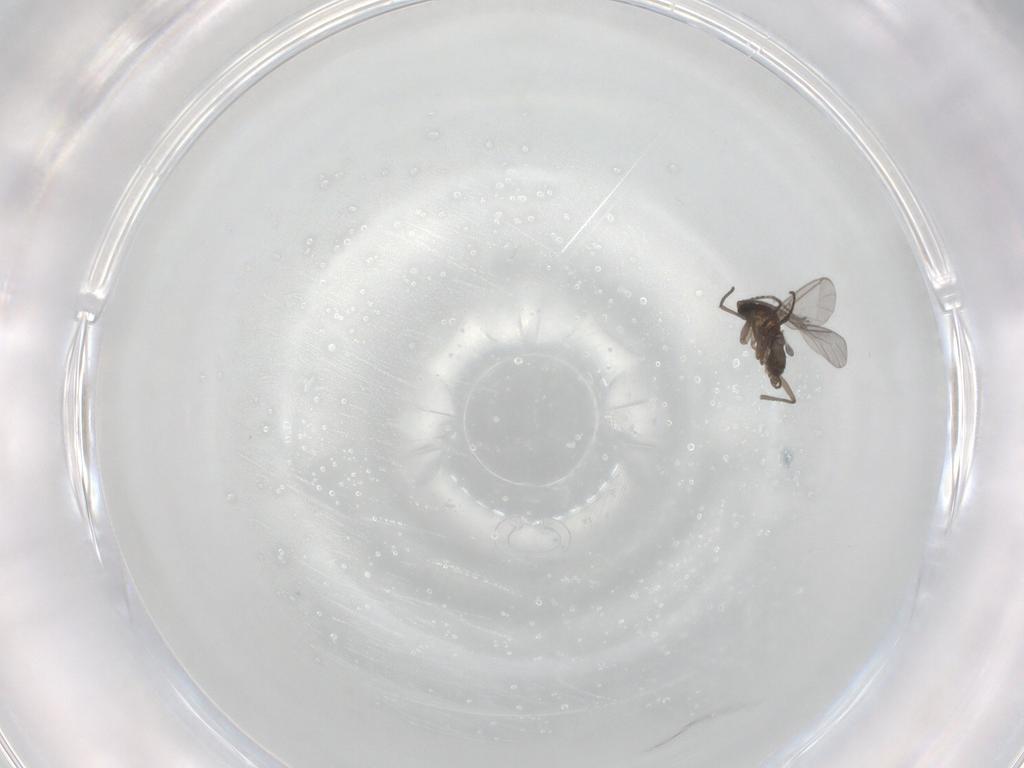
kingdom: Animalia
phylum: Arthropoda
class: Insecta
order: Diptera
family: Sciaridae
